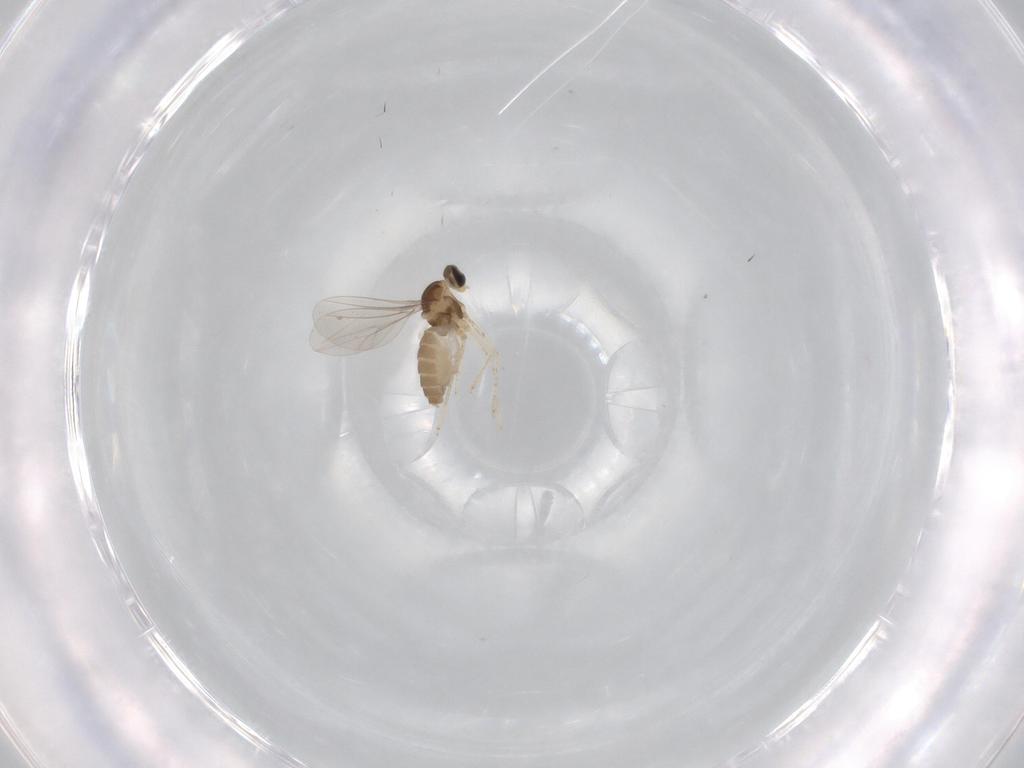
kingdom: Animalia
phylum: Arthropoda
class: Insecta
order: Diptera
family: Cecidomyiidae
